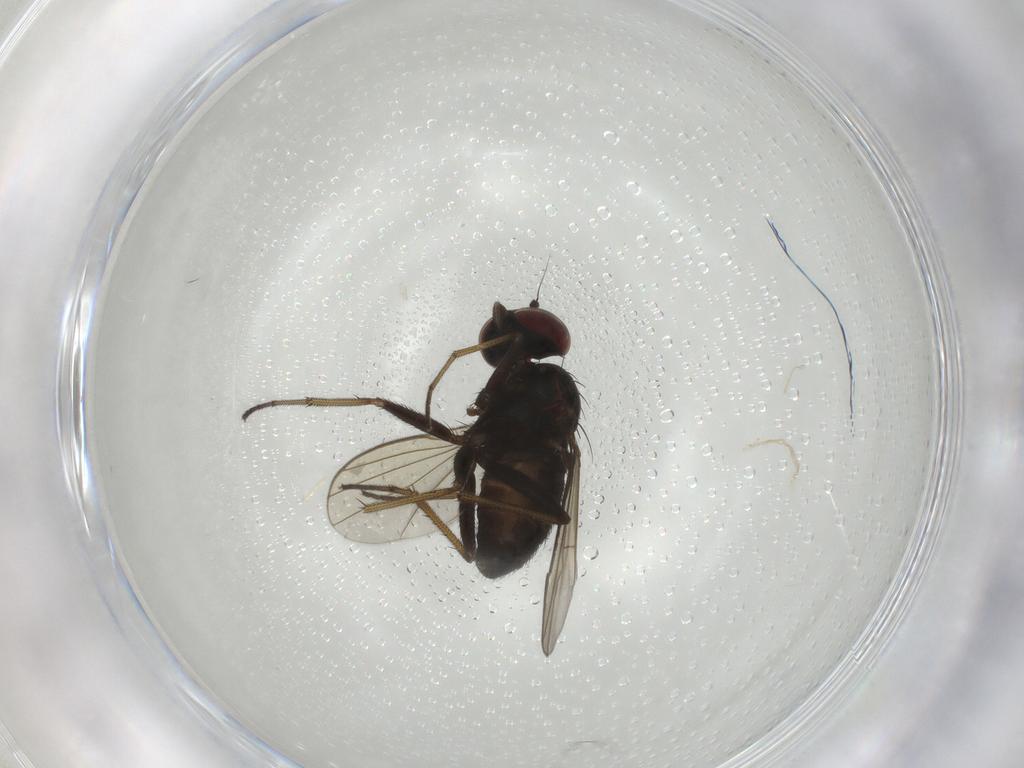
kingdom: Animalia
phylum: Arthropoda
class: Insecta
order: Diptera
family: Dolichopodidae
